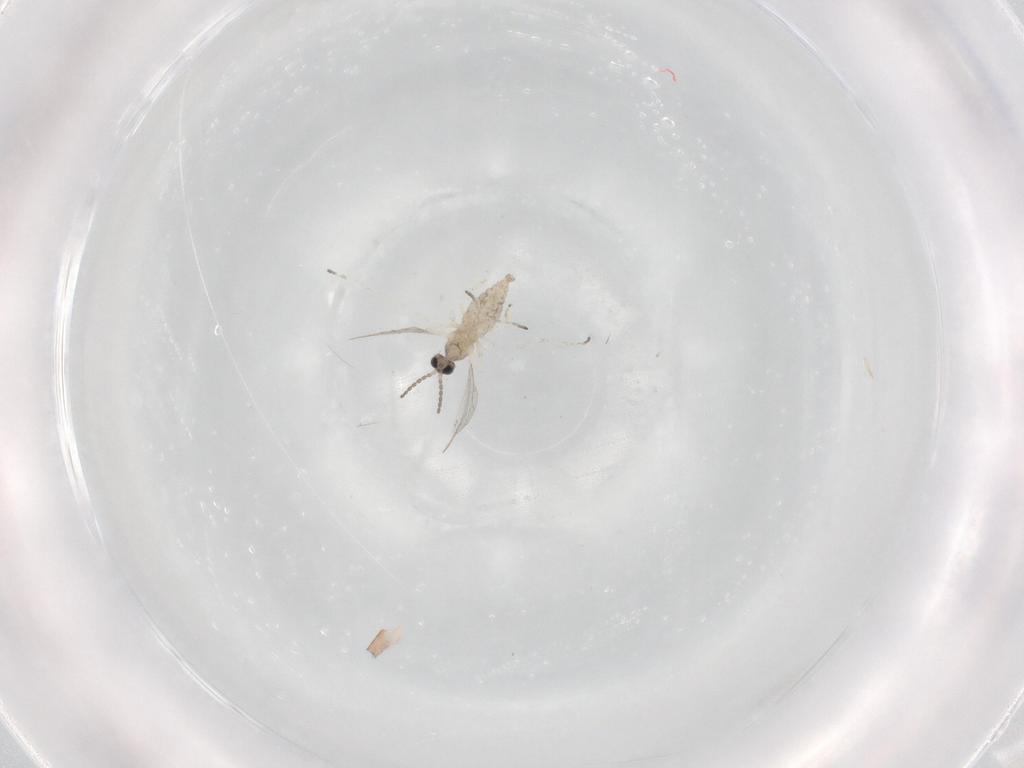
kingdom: Animalia
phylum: Arthropoda
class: Insecta
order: Diptera
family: Cecidomyiidae
